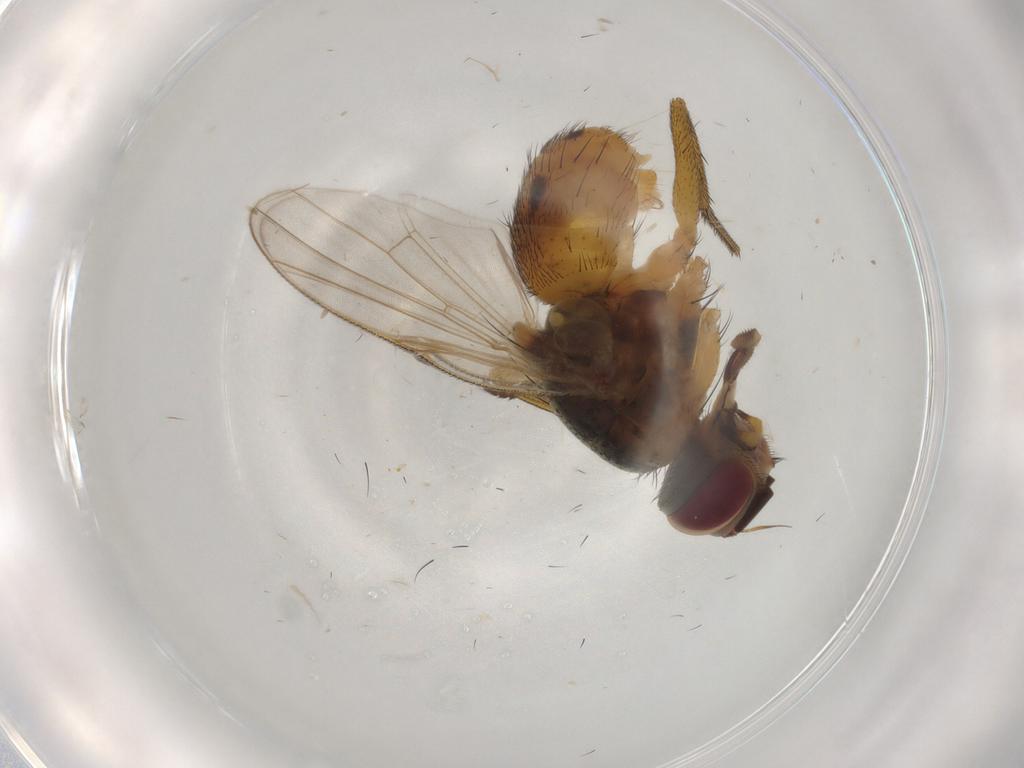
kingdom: Animalia
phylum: Arthropoda
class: Insecta
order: Diptera
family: Muscidae
